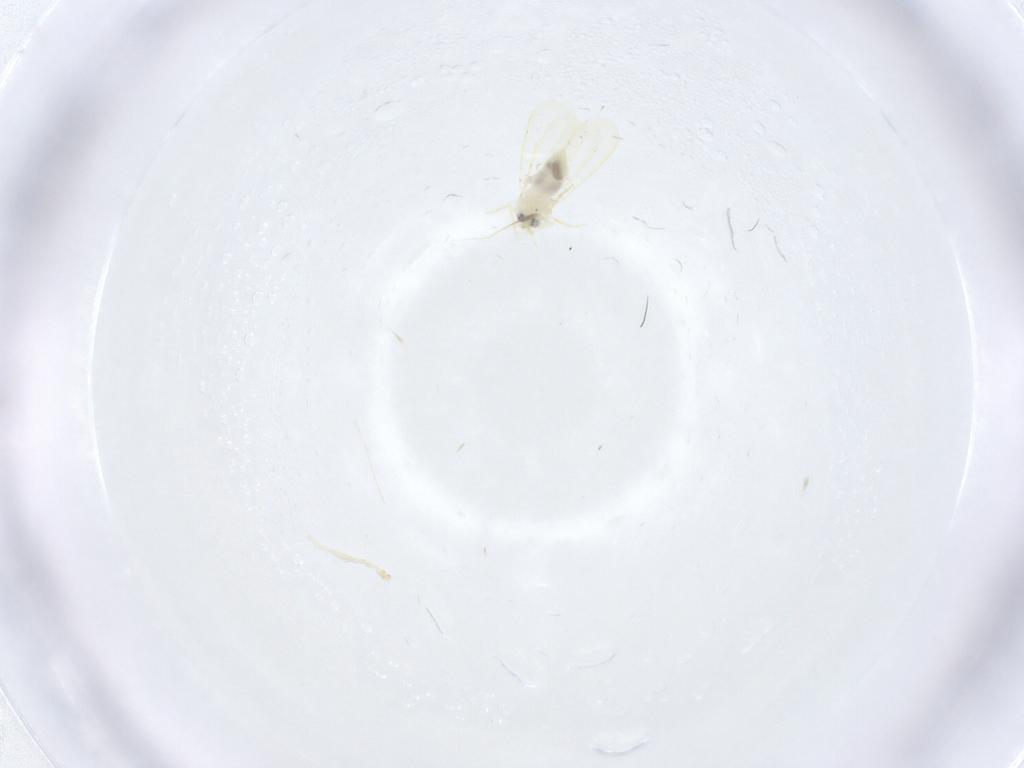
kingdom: Animalia
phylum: Arthropoda
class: Insecta
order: Hemiptera
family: Aleyrodidae
